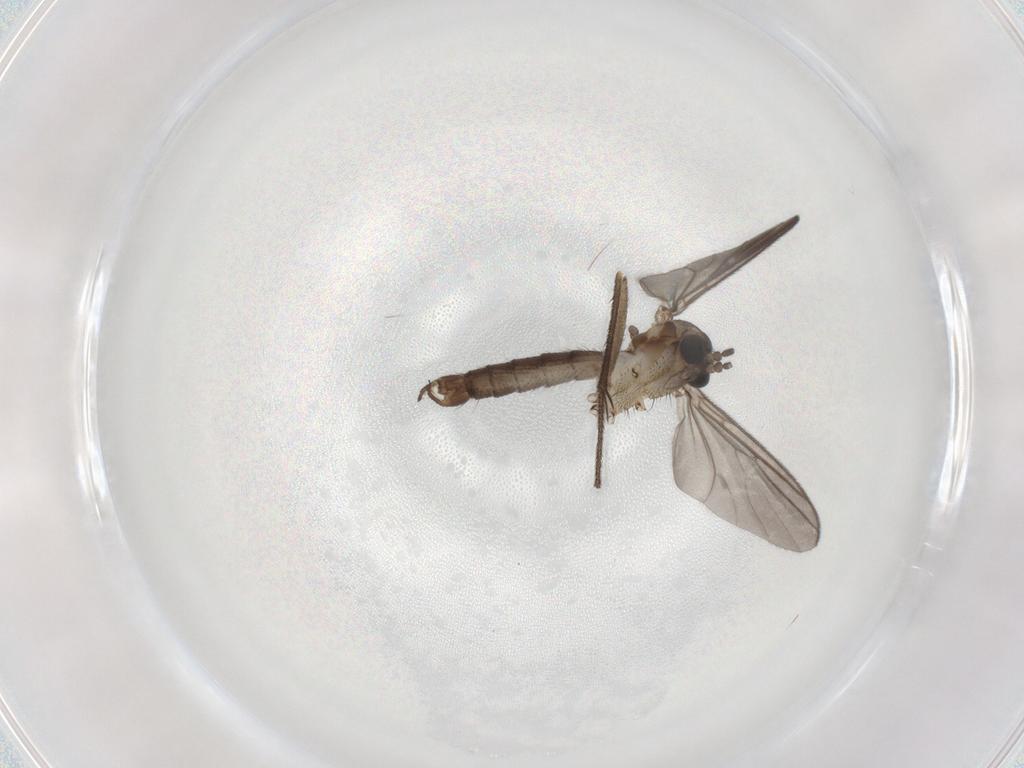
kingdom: Animalia
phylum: Arthropoda
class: Insecta
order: Diptera
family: Mycetophilidae
